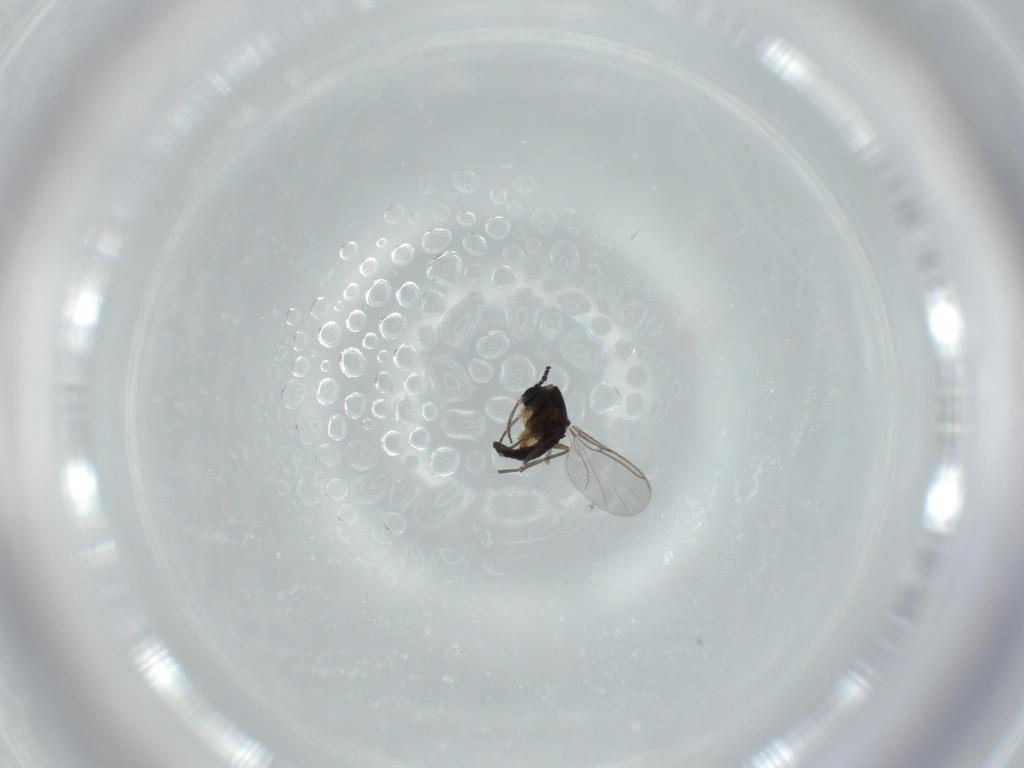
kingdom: Animalia
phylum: Arthropoda
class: Insecta
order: Diptera
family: Sciaridae
